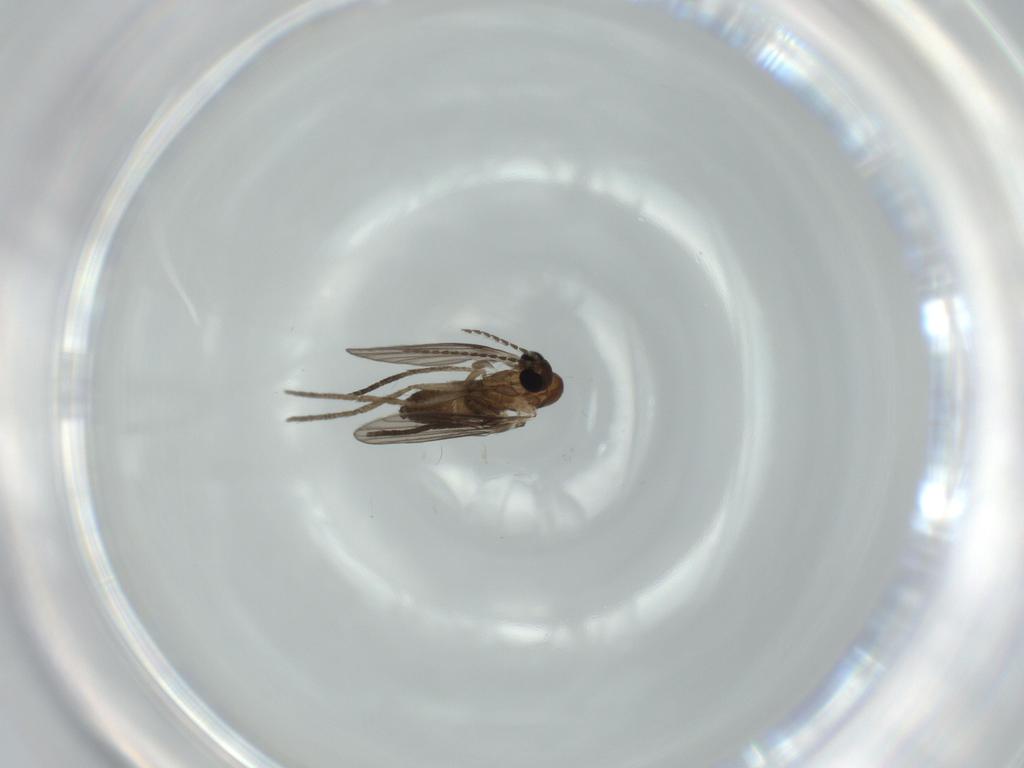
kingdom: Animalia
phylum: Arthropoda
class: Insecta
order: Diptera
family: Psychodidae
